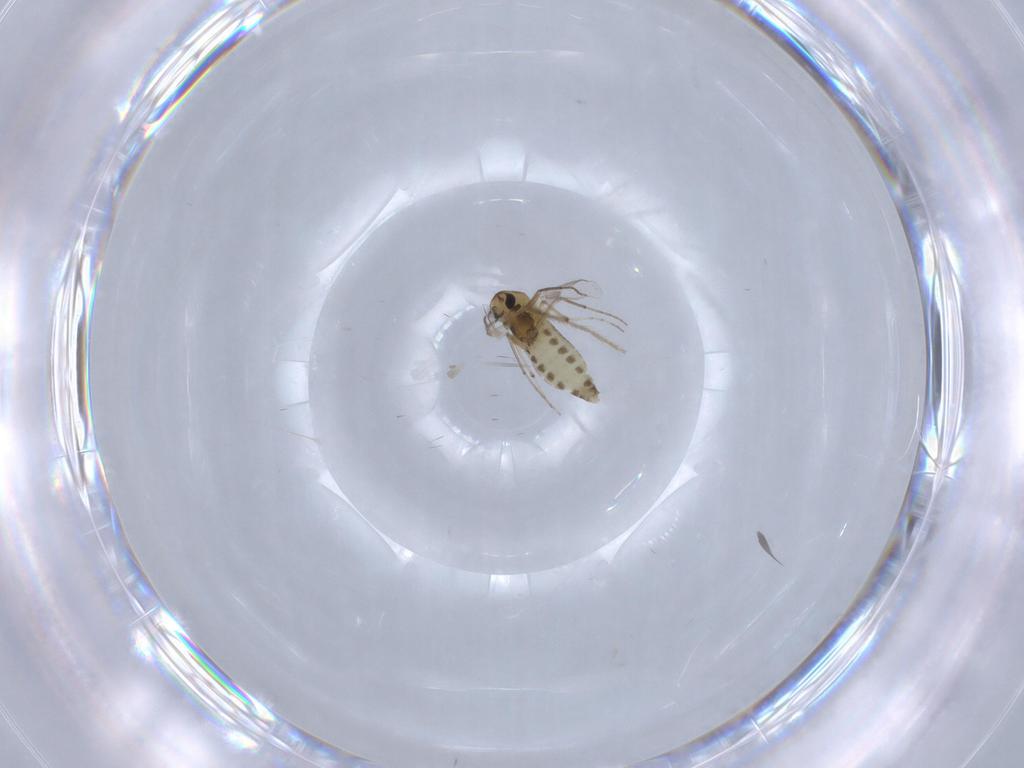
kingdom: Animalia
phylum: Arthropoda
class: Insecta
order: Diptera
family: Chironomidae
